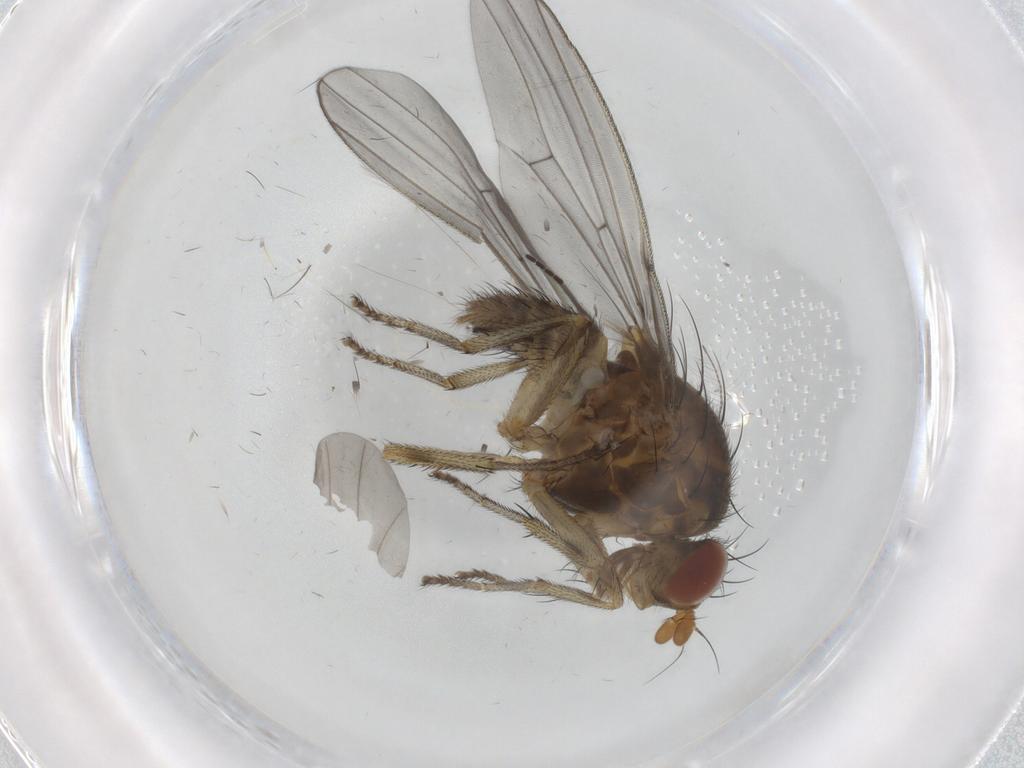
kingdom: Animalia
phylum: Arthropoda
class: Insecta
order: Diptera
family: Lauxaniidae
